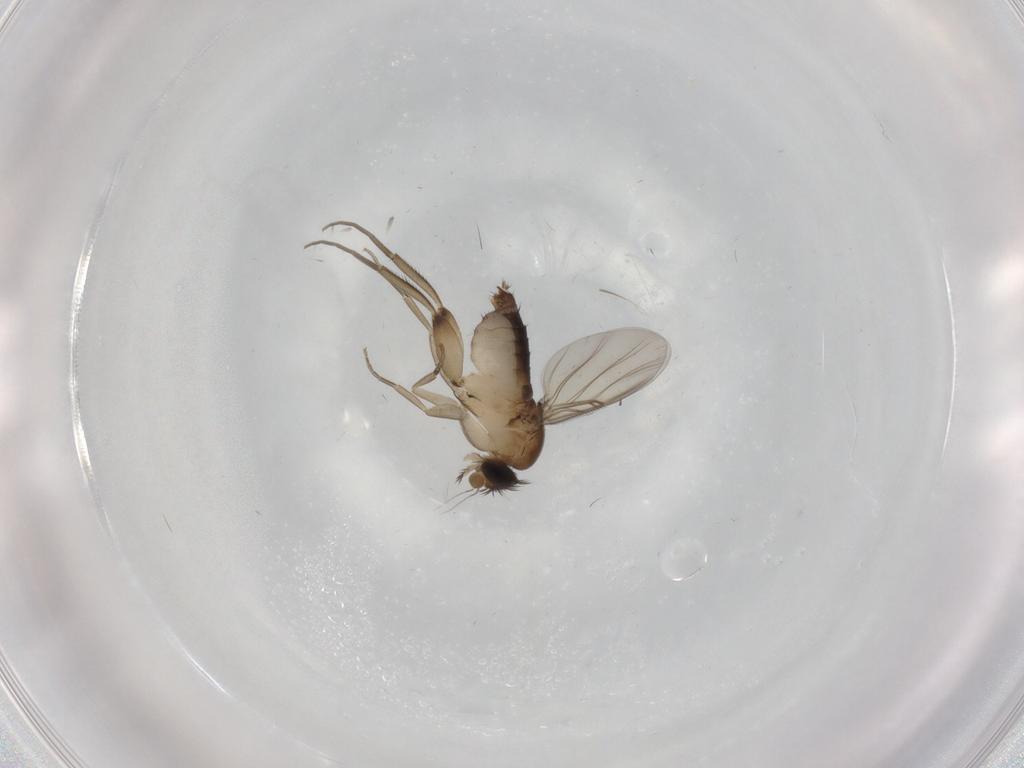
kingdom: Animalia
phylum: Arthropoda
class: Insecta
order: Diptera
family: Phoridae
